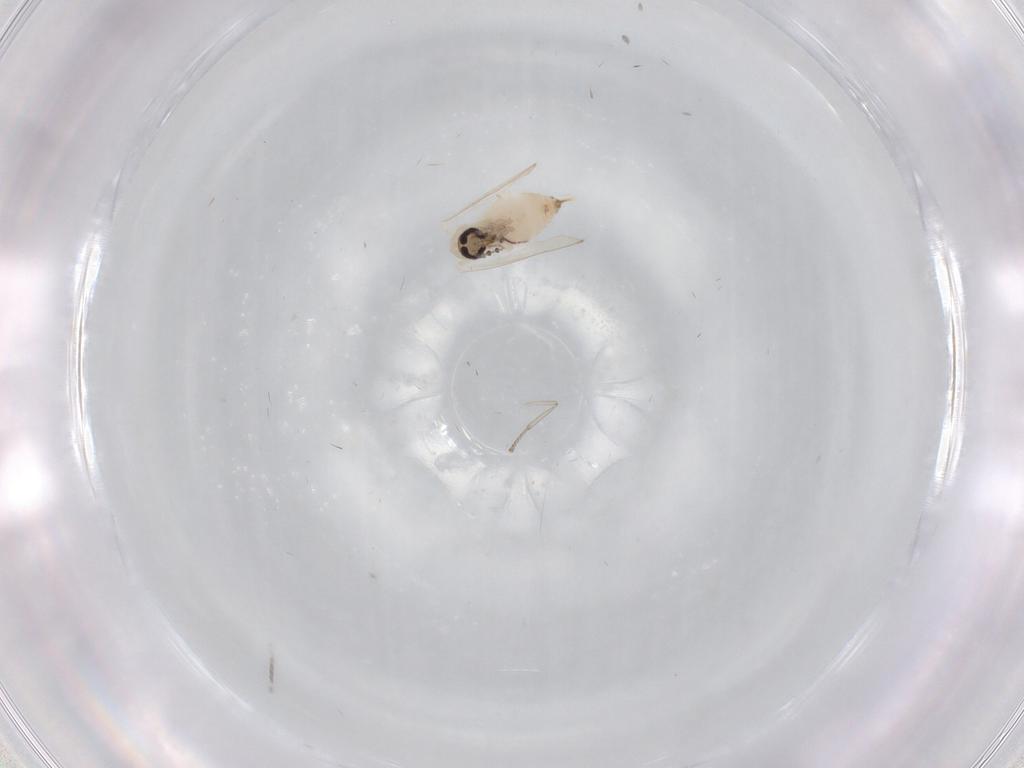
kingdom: Animalia
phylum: Arthropoda
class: Insecta
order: Diptera
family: Psychodidae
